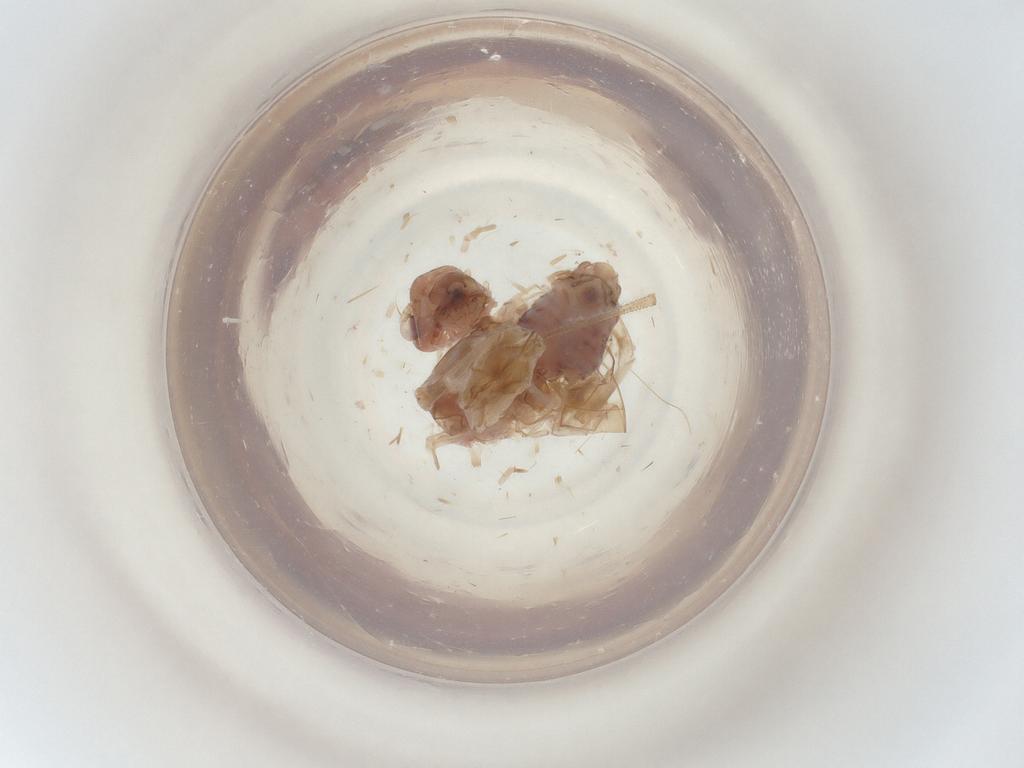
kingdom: Animalia
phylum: Arthropoda
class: Insecta
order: Psocodea
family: Psocidae
